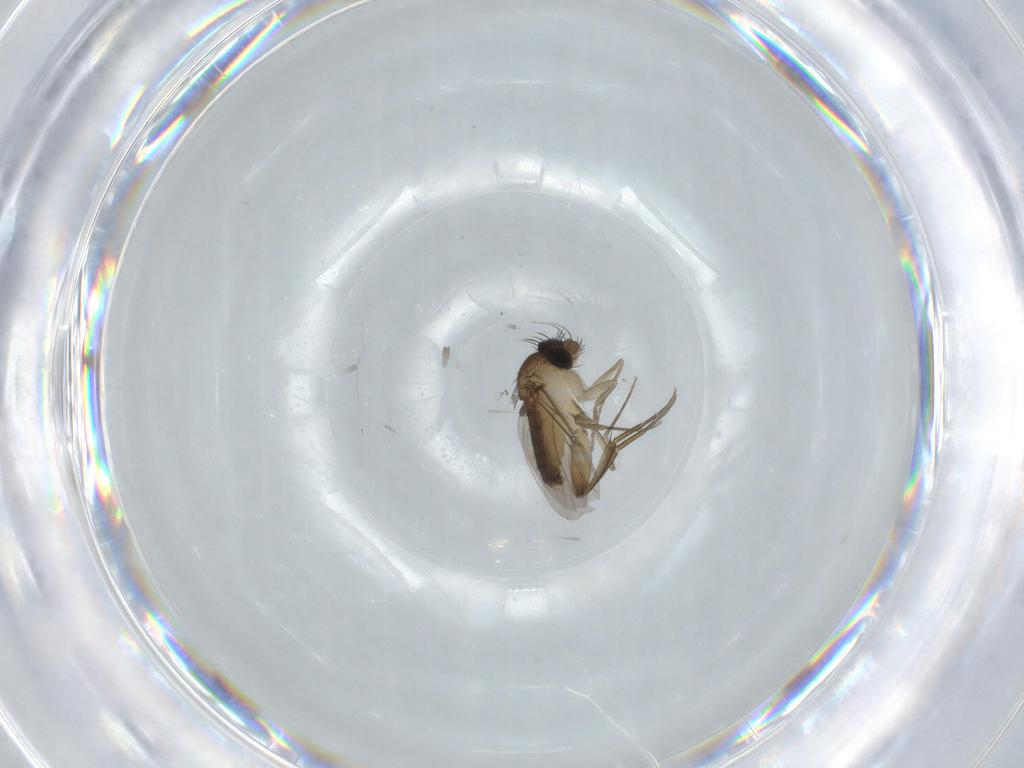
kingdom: Animalia
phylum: Arthropoda
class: Insecta
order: Diptera
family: Phoridae
